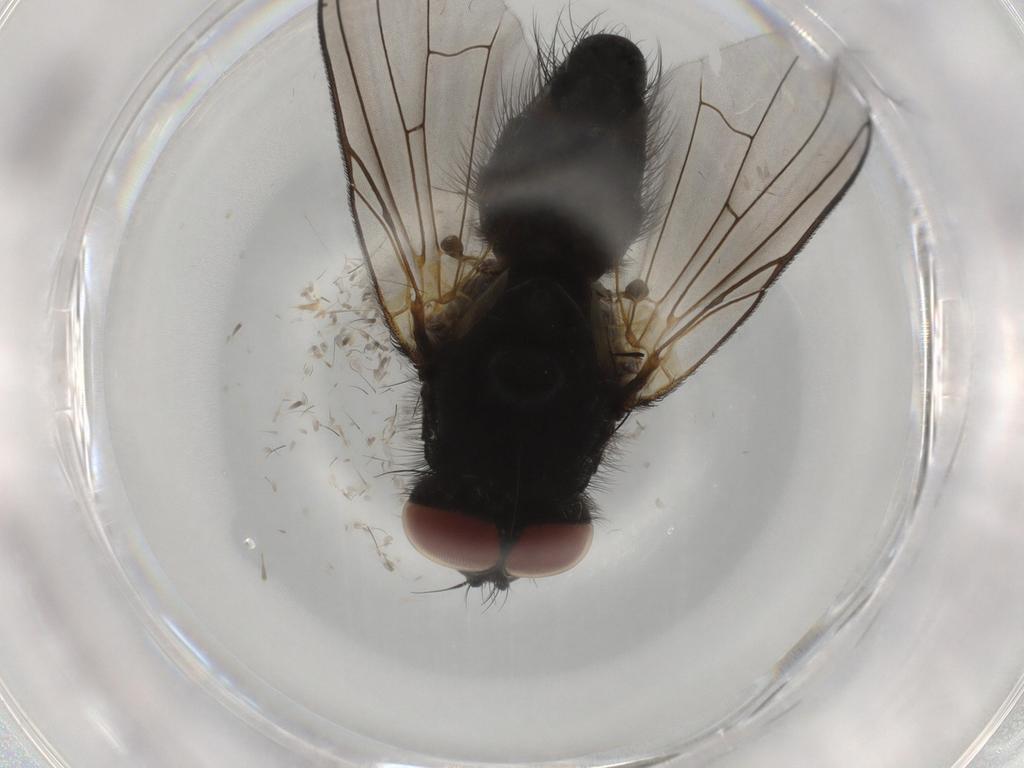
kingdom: Animalia
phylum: Arthropoda
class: Insecta
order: Diptera
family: Muscidae
